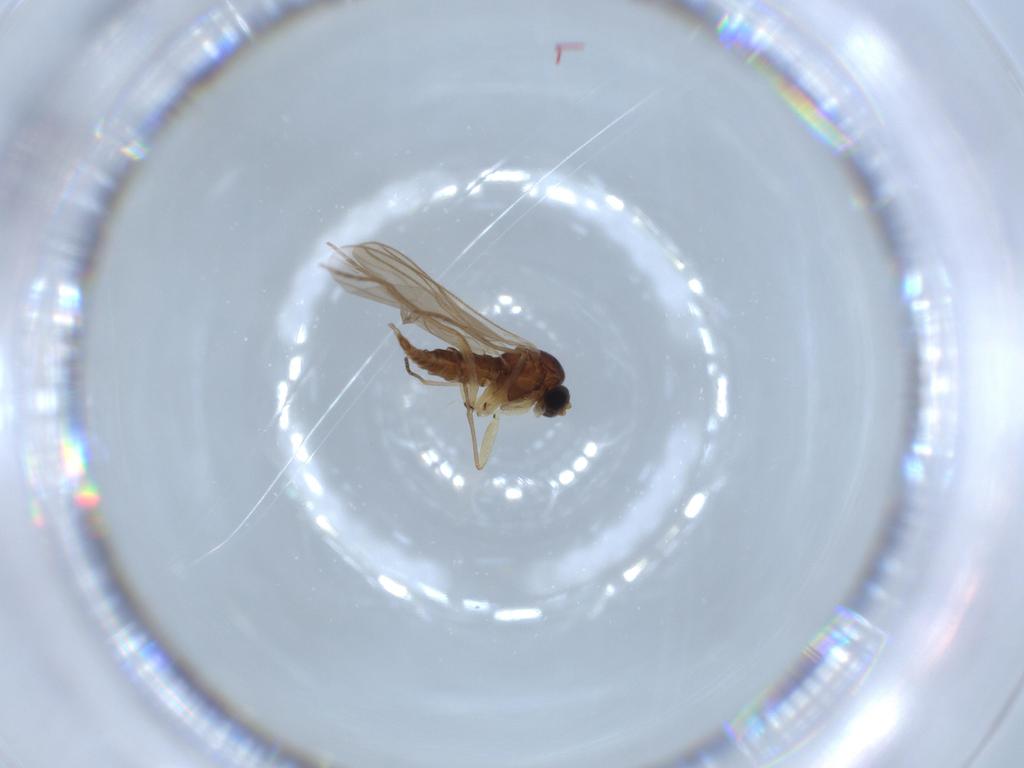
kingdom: Animalia
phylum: Arthropoda
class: Insecta
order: Diptera
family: Sciaridae
